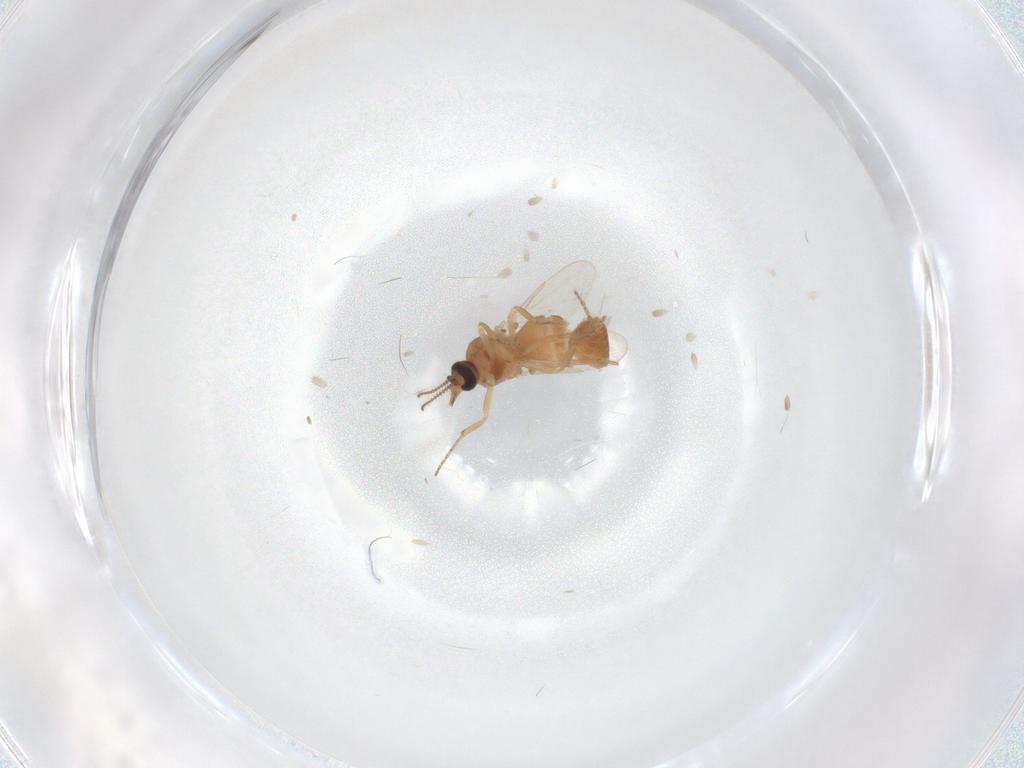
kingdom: Animalia
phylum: Arthropoda
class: Insecta
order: Diptera
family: Ceratopogonidae
